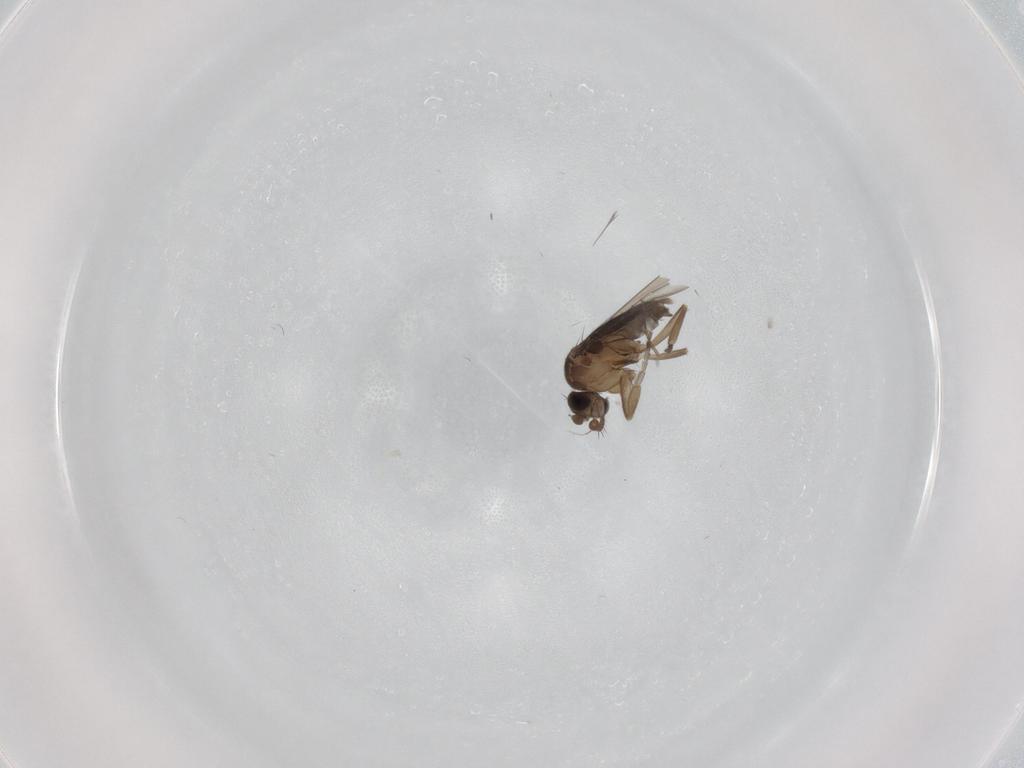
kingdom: Animalia
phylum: Arthropoda
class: Insecta
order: Diptera
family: Phoridae
